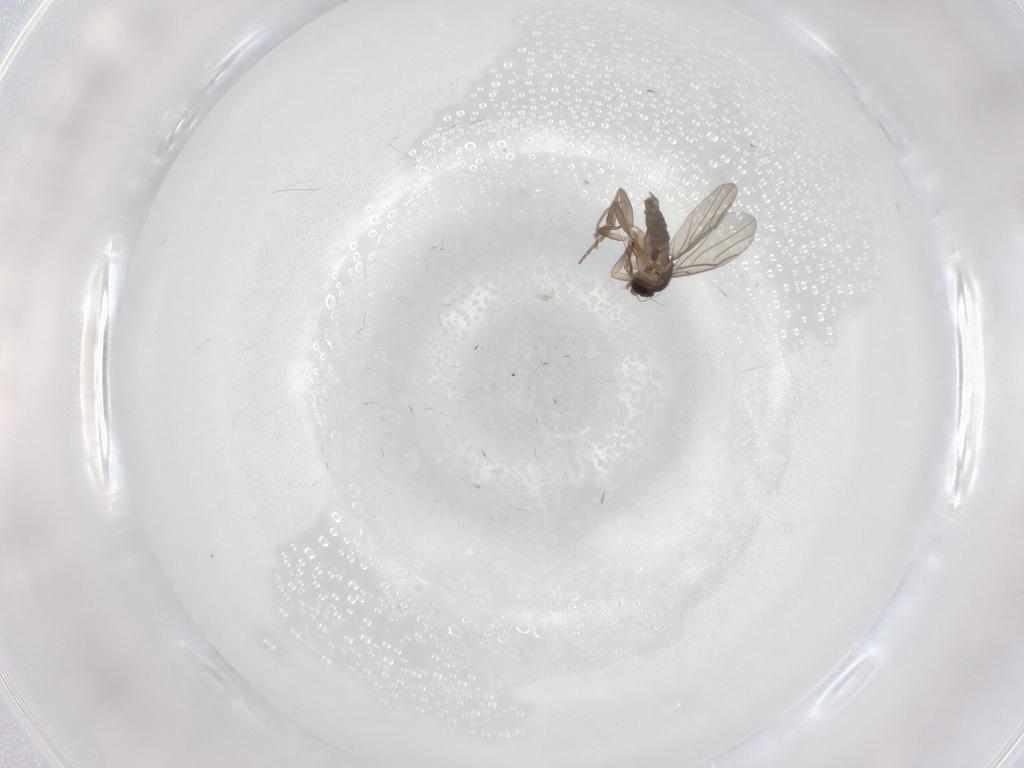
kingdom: Animalia
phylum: Arthropoda
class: Insecta
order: Diptera
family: Phoridae
